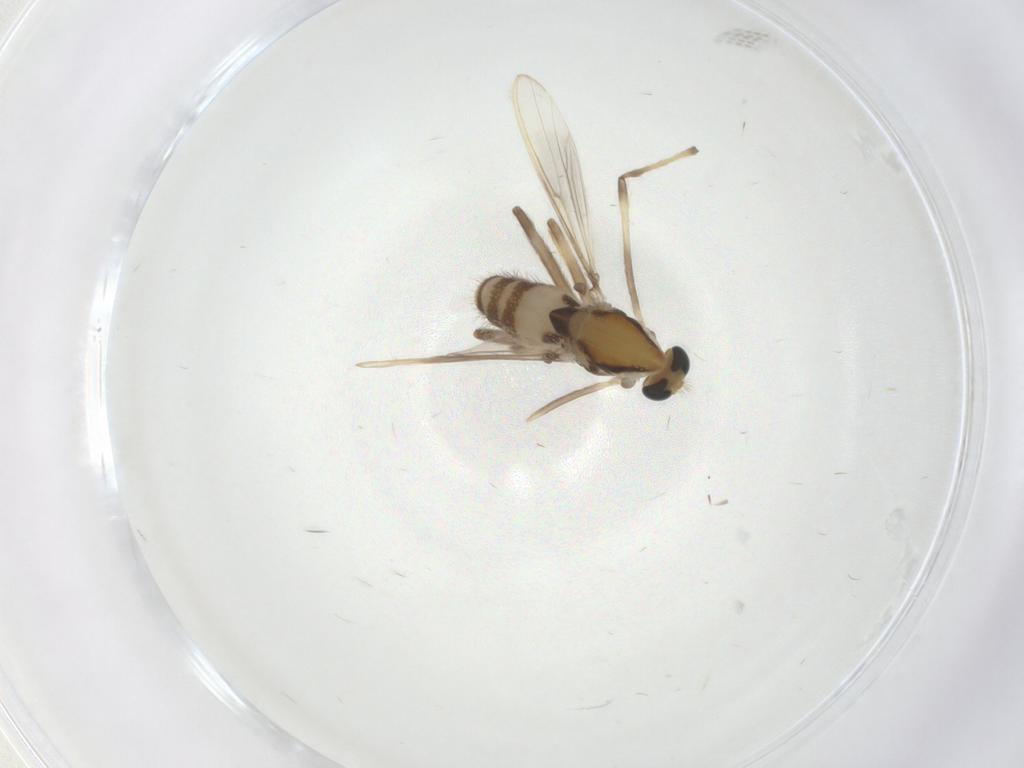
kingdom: Animalia
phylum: Arthropoda
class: Insecta
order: Diptera
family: Chironomidae
